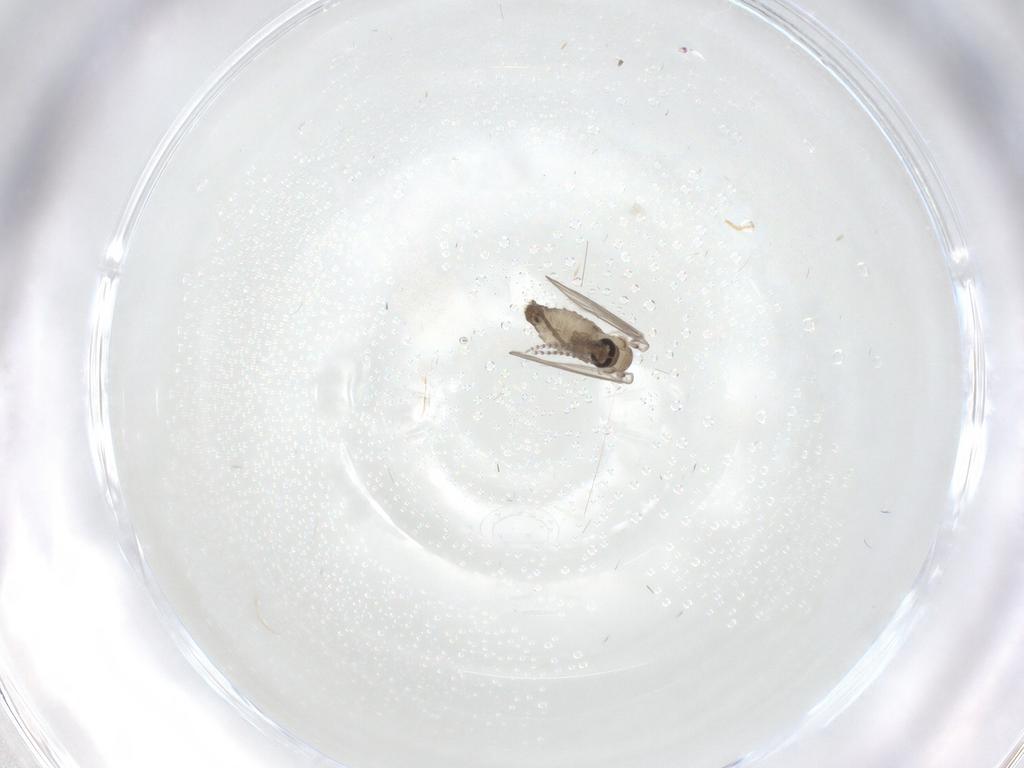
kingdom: Animalia
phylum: Arthropoda
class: Insecta
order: Diptera
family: Psychodidae
